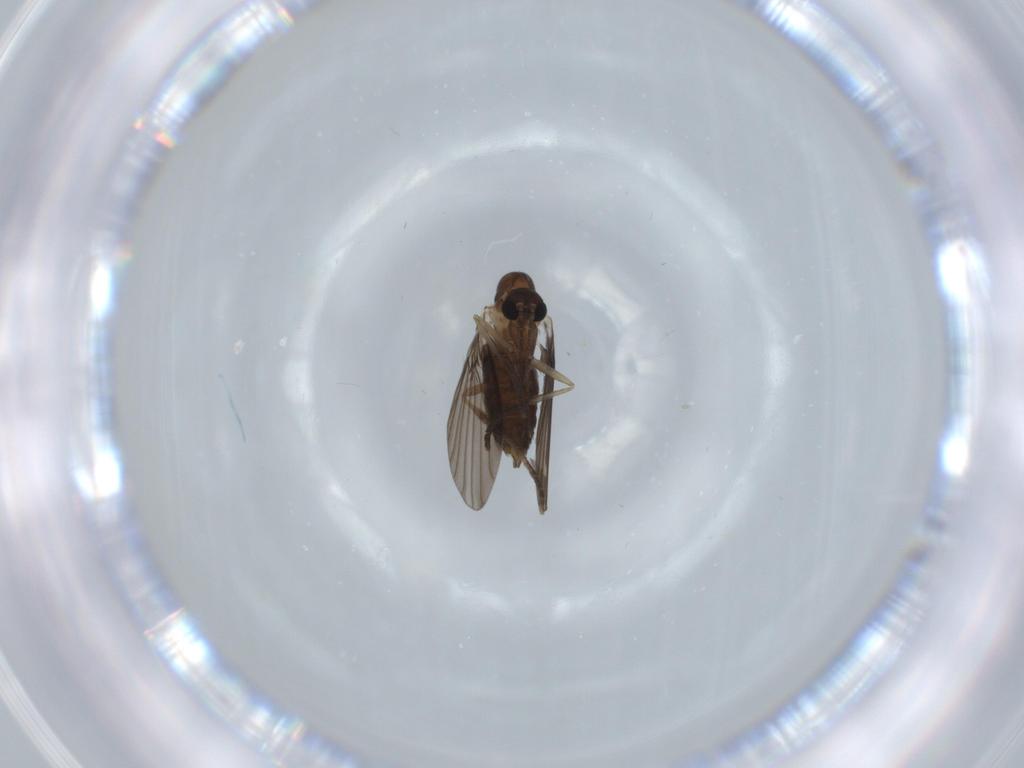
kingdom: Animalia
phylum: Arthropoda
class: Insecta
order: Diptera
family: Psychodidae
